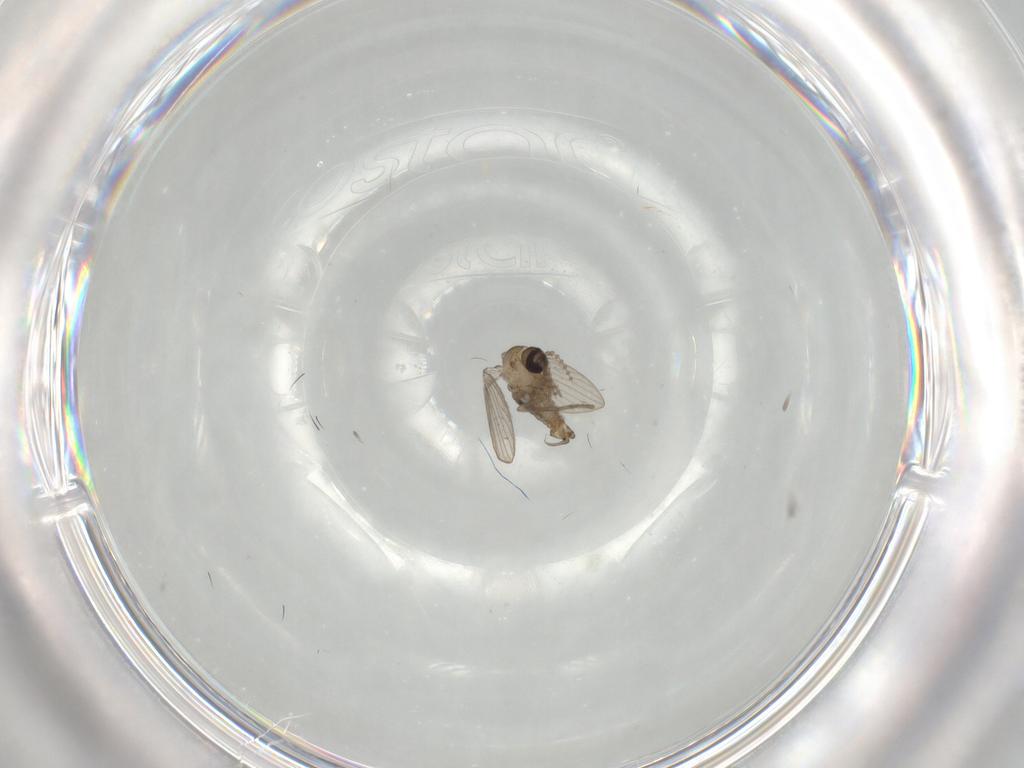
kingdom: Animalia
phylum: Arthropoda
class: Insecta
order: Diptera
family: Psychodidae
